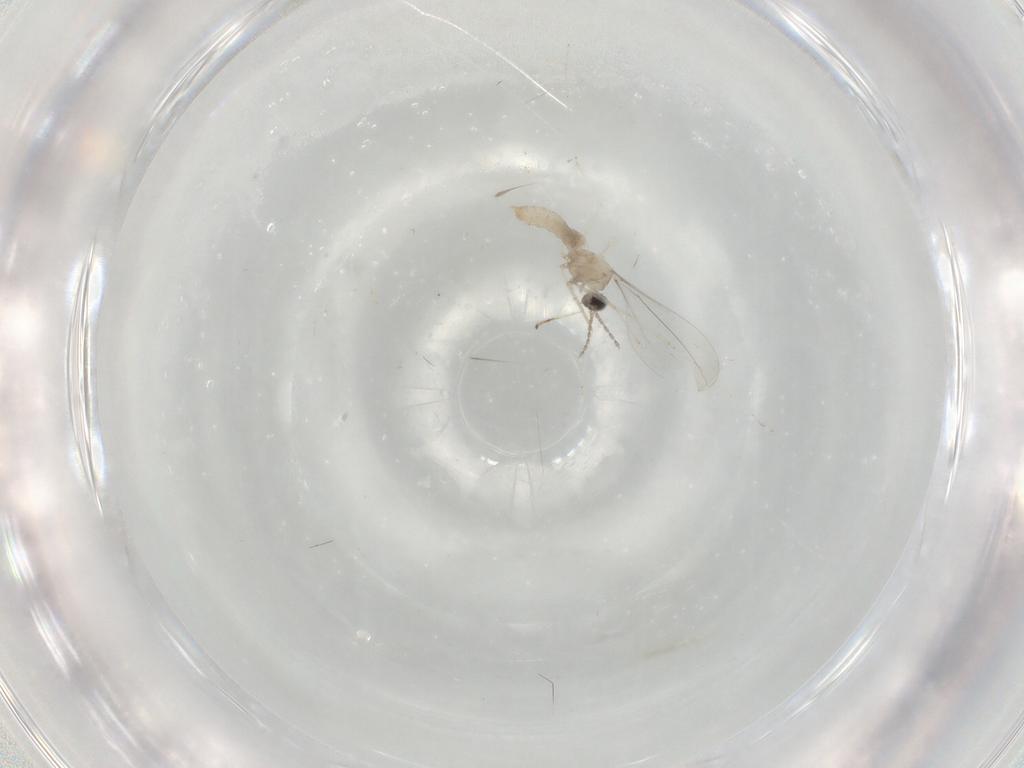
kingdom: Animalia
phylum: Arthropoda
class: Insecta
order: Diptera
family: Cecidomyiidae
